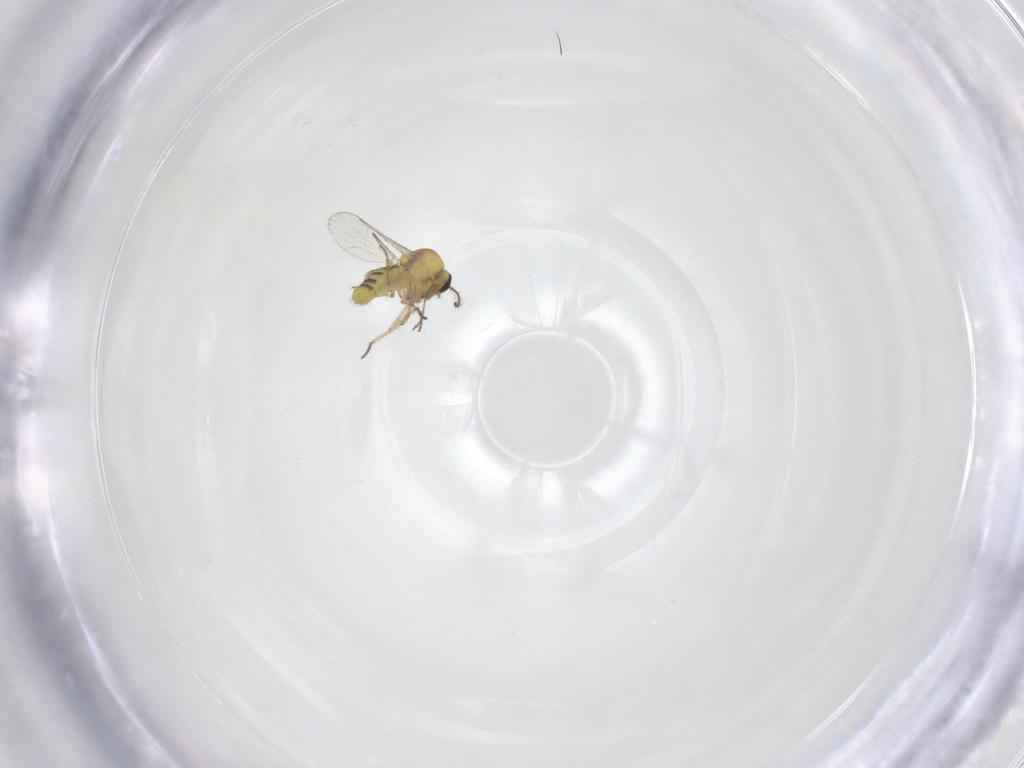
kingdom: Animalia
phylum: Arthropoda
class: Insecta
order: Diptera
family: Ceratopogonidae
